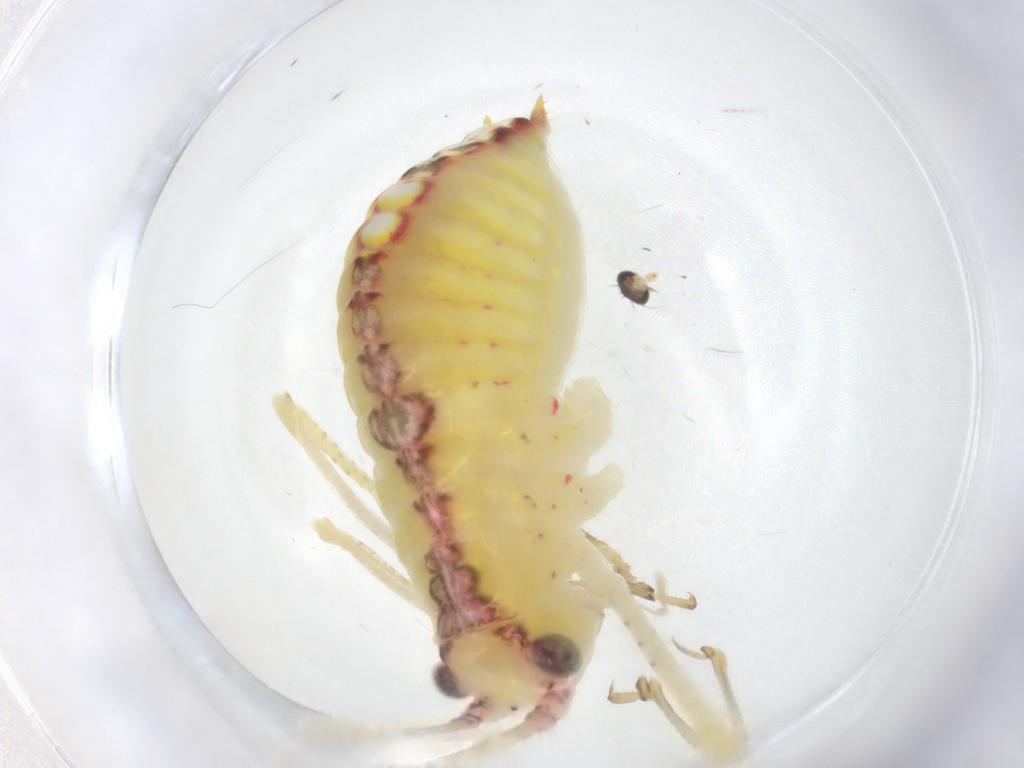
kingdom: Animalia
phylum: Arthropoda
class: Insecta
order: Orthoptera
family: Tettigoniidae
